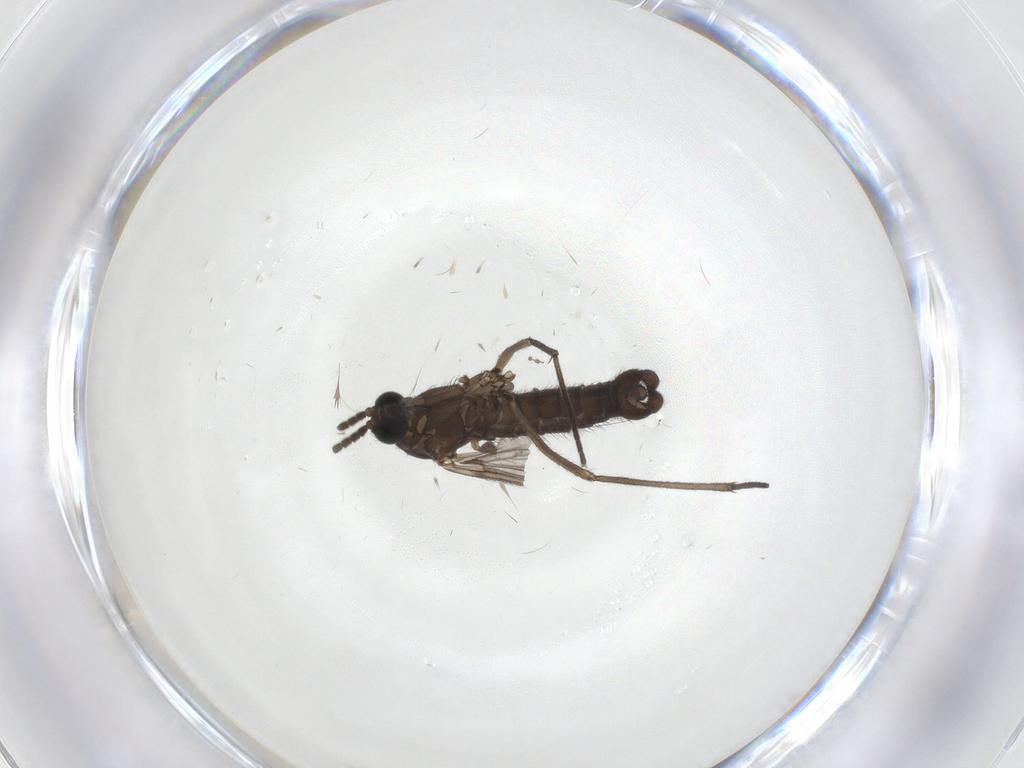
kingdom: Animalia
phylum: Arthropoda
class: Insecta
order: Diptera
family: Sciaridae
